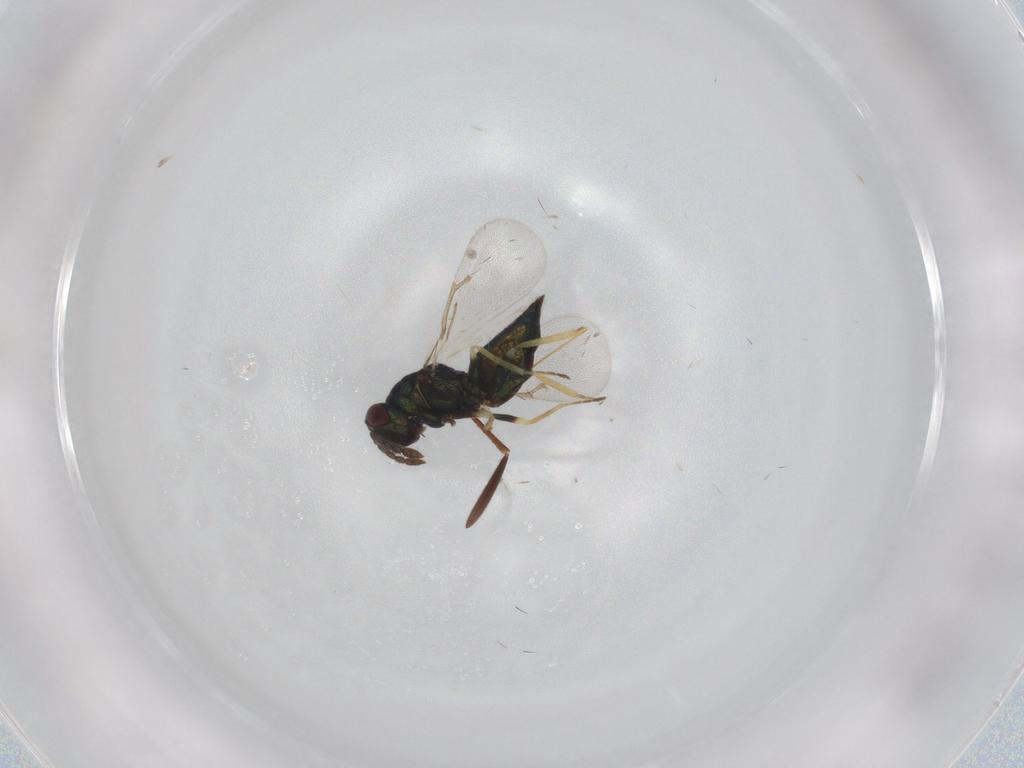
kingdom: Animalia
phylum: Arthropoda
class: Insecta
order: Hymenoptera
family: Eulophidae
